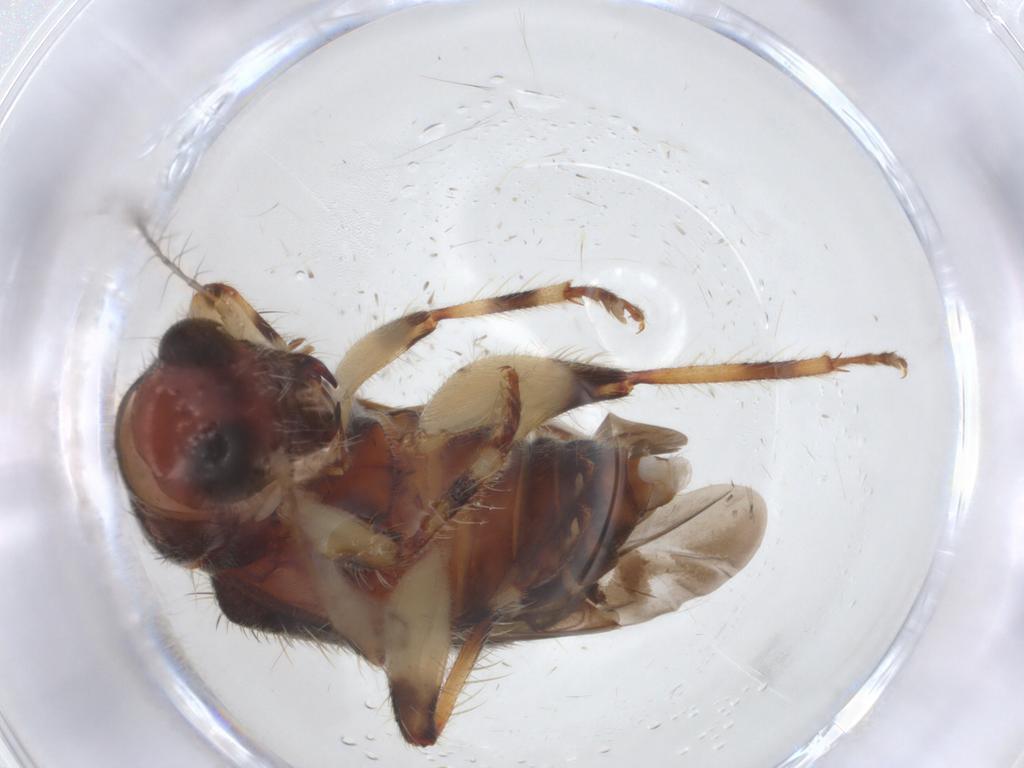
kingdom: Animalia
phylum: Arthropoda
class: Insecta
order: Coleoptera
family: Cleridae
